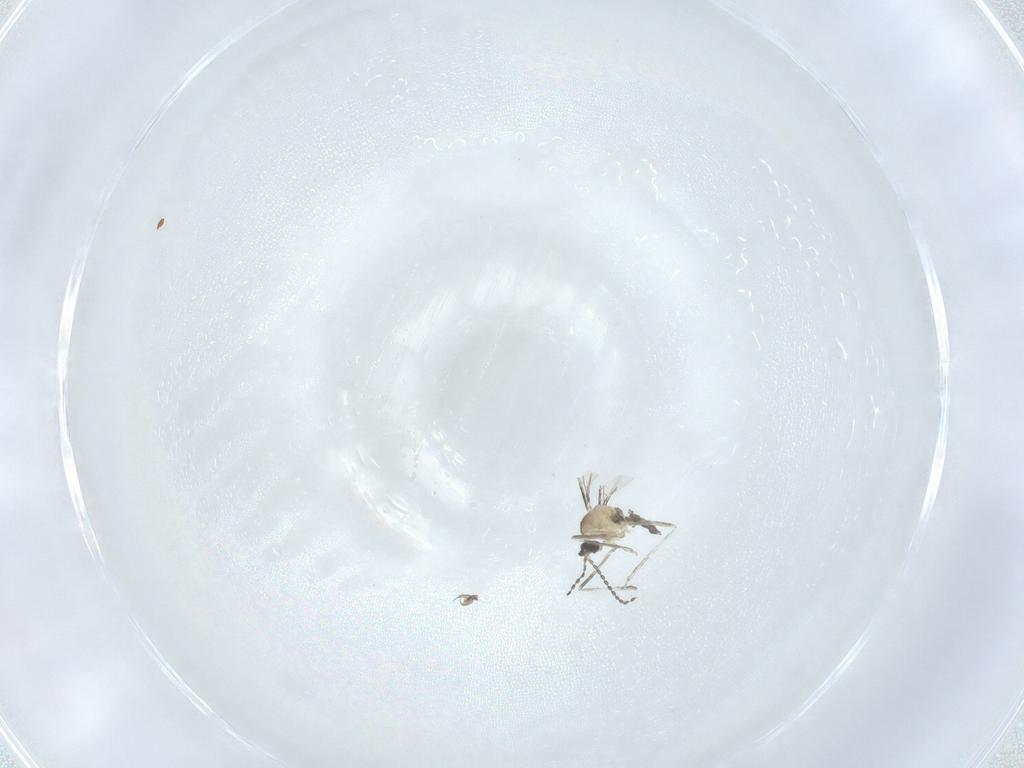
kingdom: Animalia
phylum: Arthropoda
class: Insecta
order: Diptera
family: Cecidomyiidae
